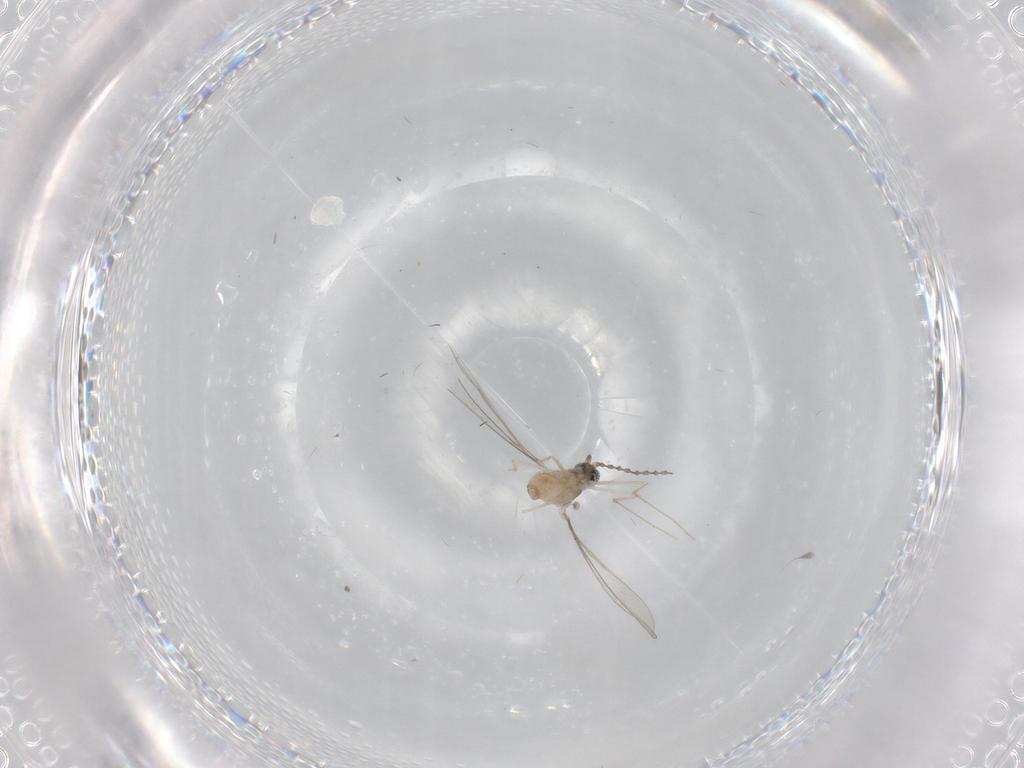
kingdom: Animalia
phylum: Arthropoda
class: Insecta
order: Diptera
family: Cecidomyiidae
